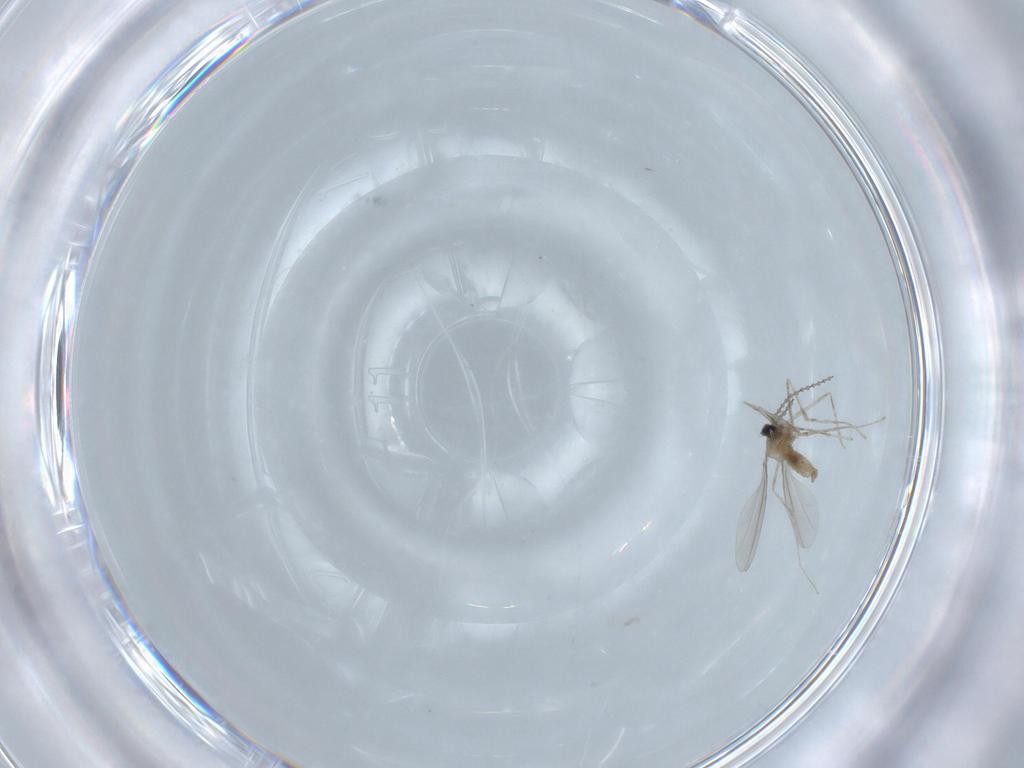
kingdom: Animalia
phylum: Arthropoda
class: Insecta
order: Diptera
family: Cecidomyiidae
